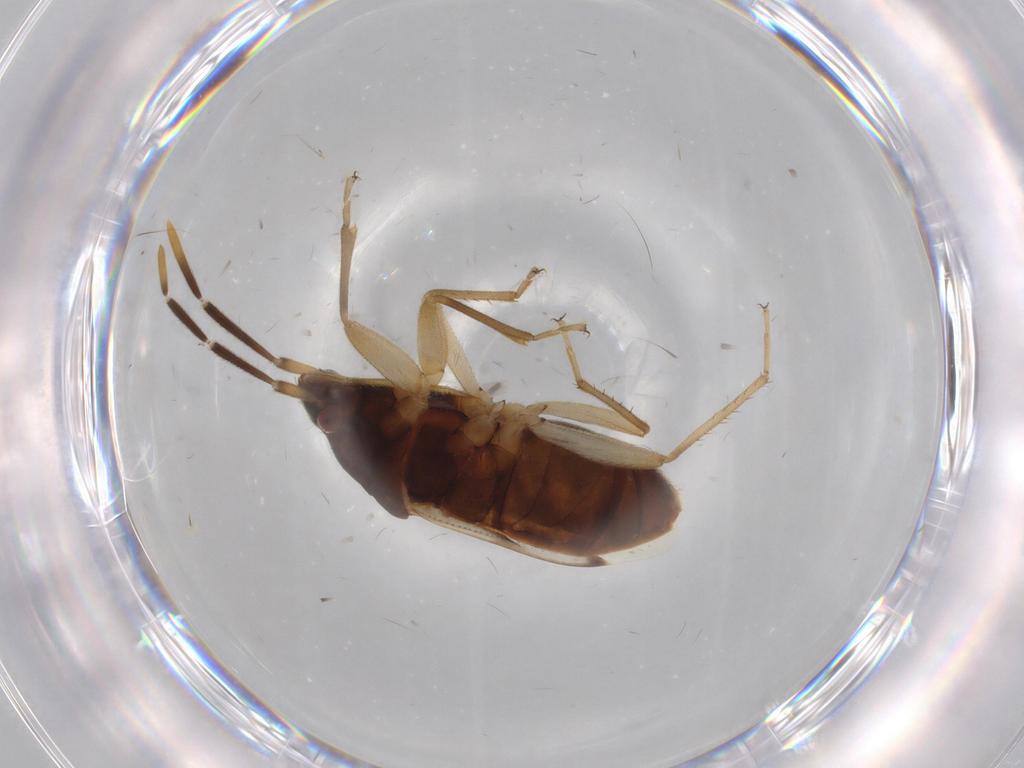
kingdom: Animalia
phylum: Arthropoda
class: Insecta
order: Hemiptera
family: Rhyparochromidae
